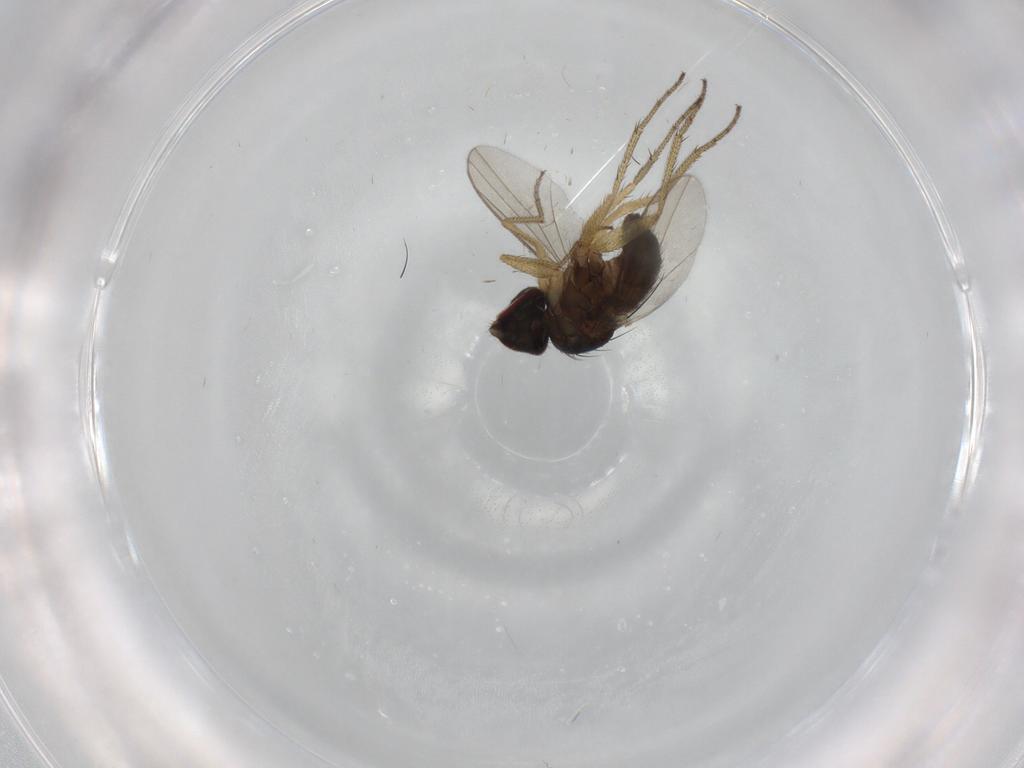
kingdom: Animalia
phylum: Arthropoda
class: Insecta
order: Diptera
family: Dolichopodidae
